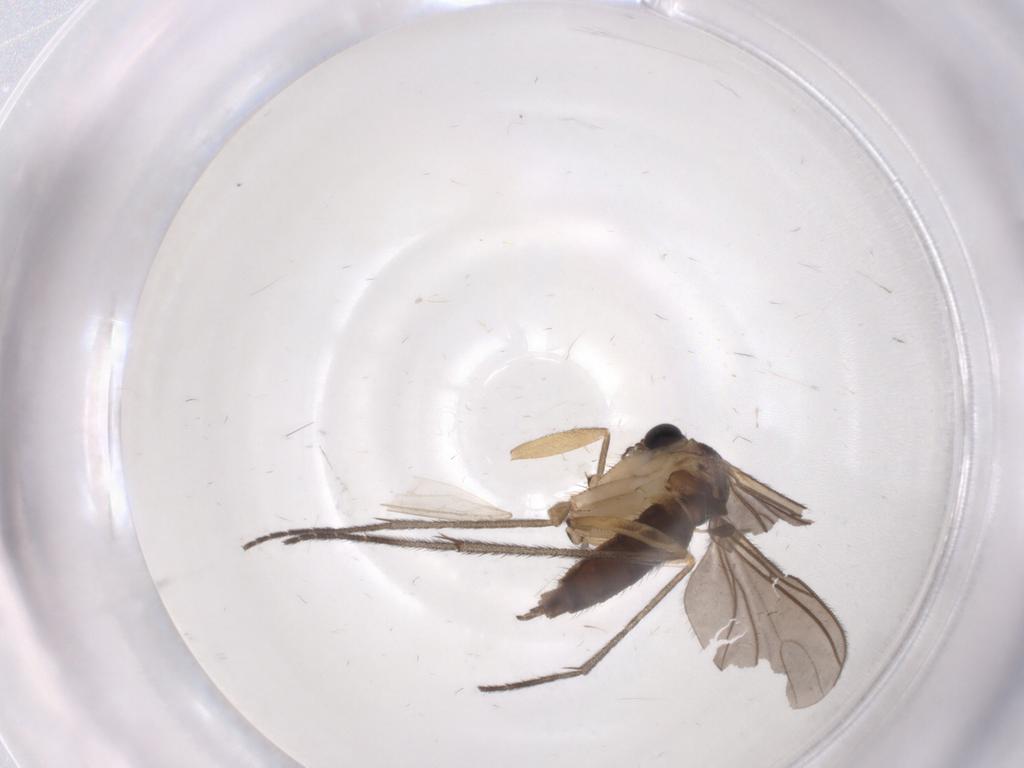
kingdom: Animalia
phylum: Arthropoda
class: Insecta
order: Diptera
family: Sciaridae
